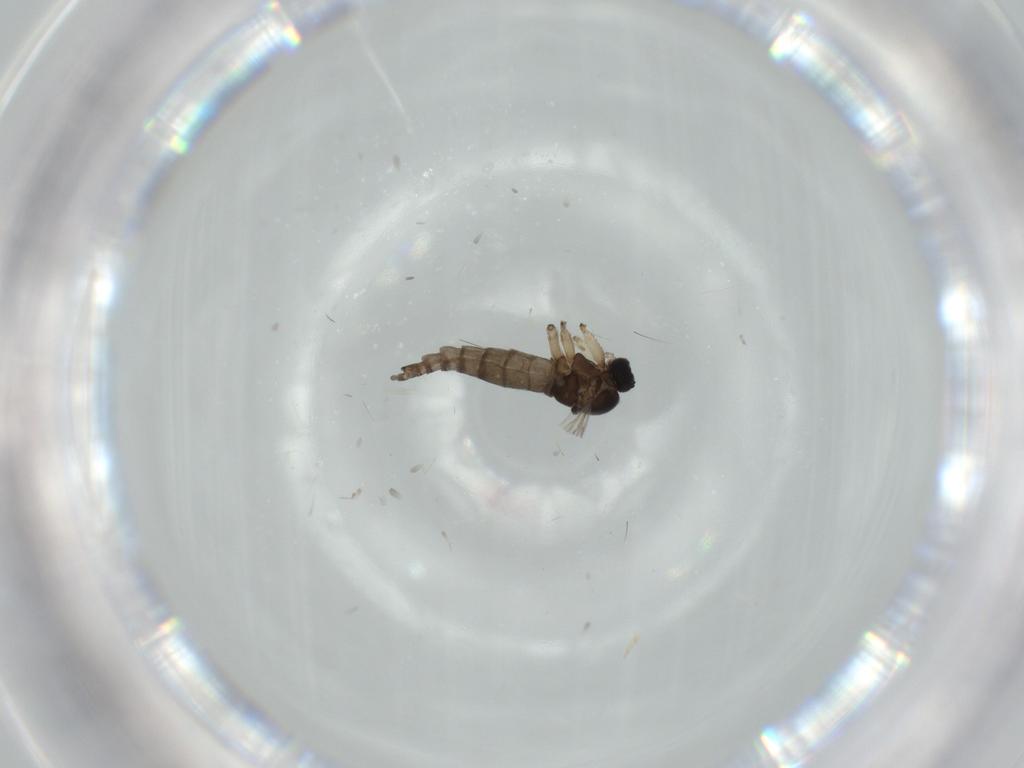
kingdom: Animalia
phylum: Arthropoda
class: Insecta
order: Diptera
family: Sciaridae
